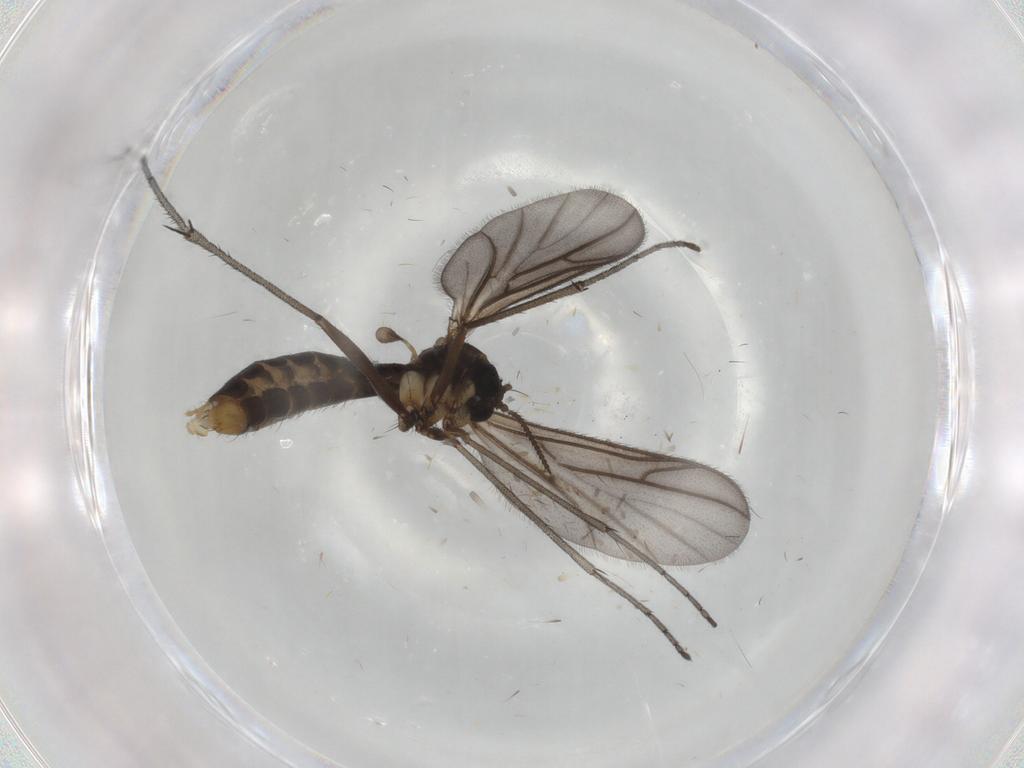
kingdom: Animalia
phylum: Arthropoda
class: Insecta
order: Diptera
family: Ditomyiidae
